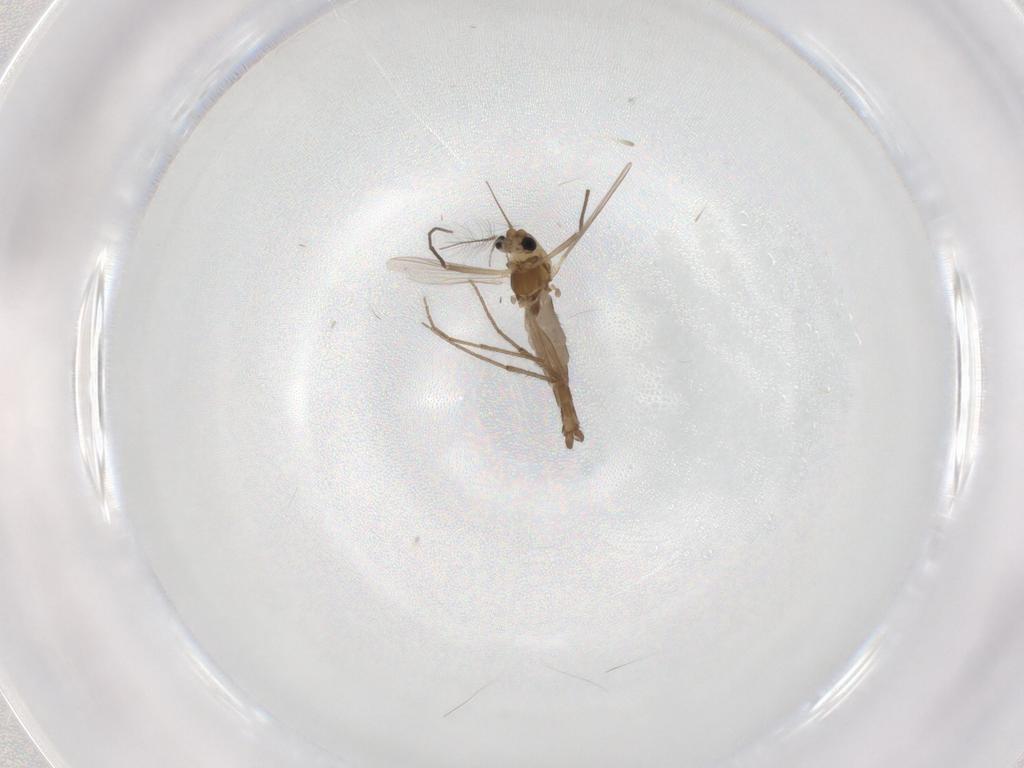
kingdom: Animalia
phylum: Arthropoda
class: Insecta
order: Diptera
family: Chironomidae
